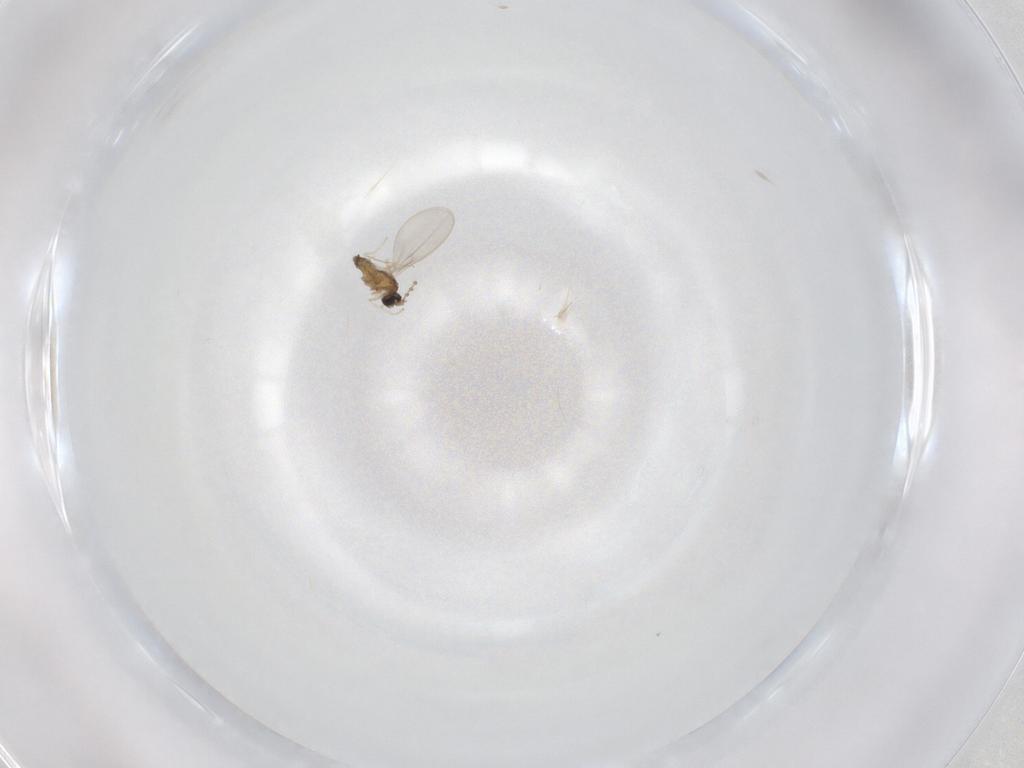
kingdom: Animalia
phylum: Arthropoda
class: Insecta
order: Diptera
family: Cecidomyiidae
